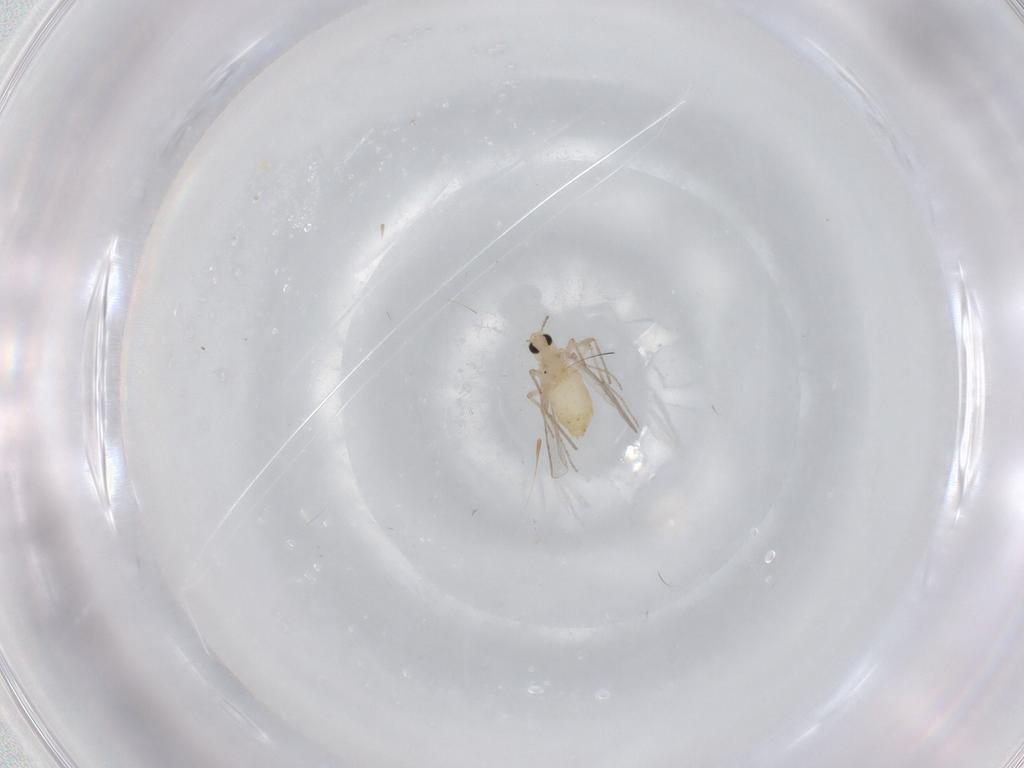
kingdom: Animalia
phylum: Arthropoda
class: Insecta
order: Diptera
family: Chironomidae
